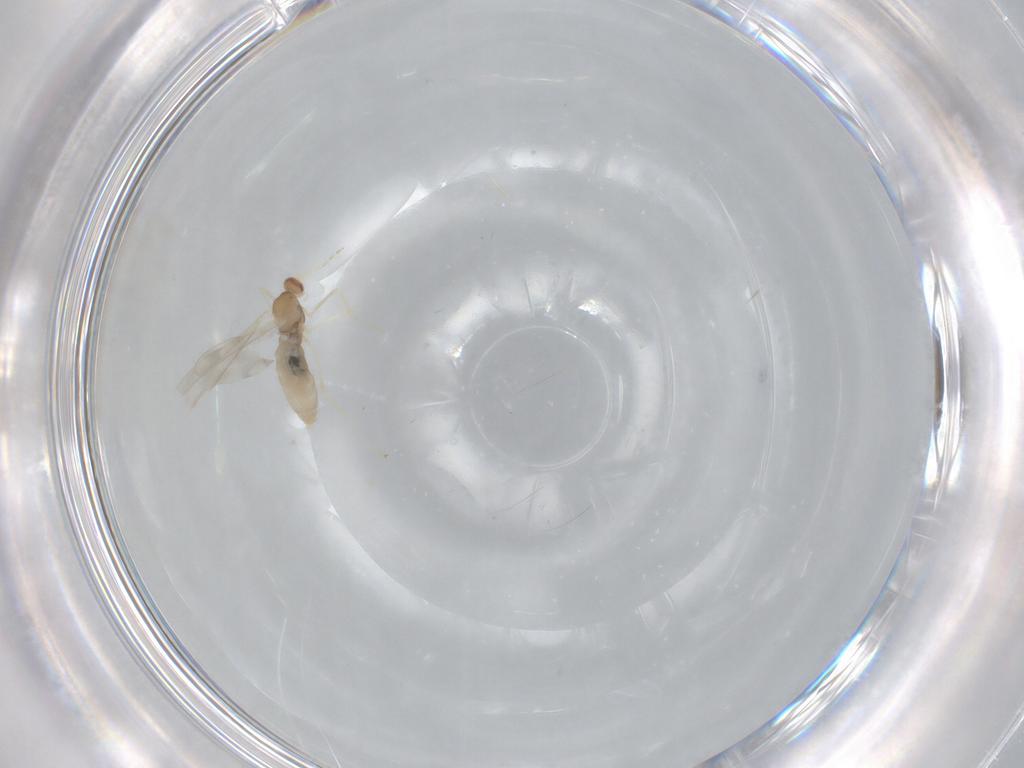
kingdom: Animalia
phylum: Arthropoda
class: Insecta
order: Diptera
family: Cecidomyiidae
